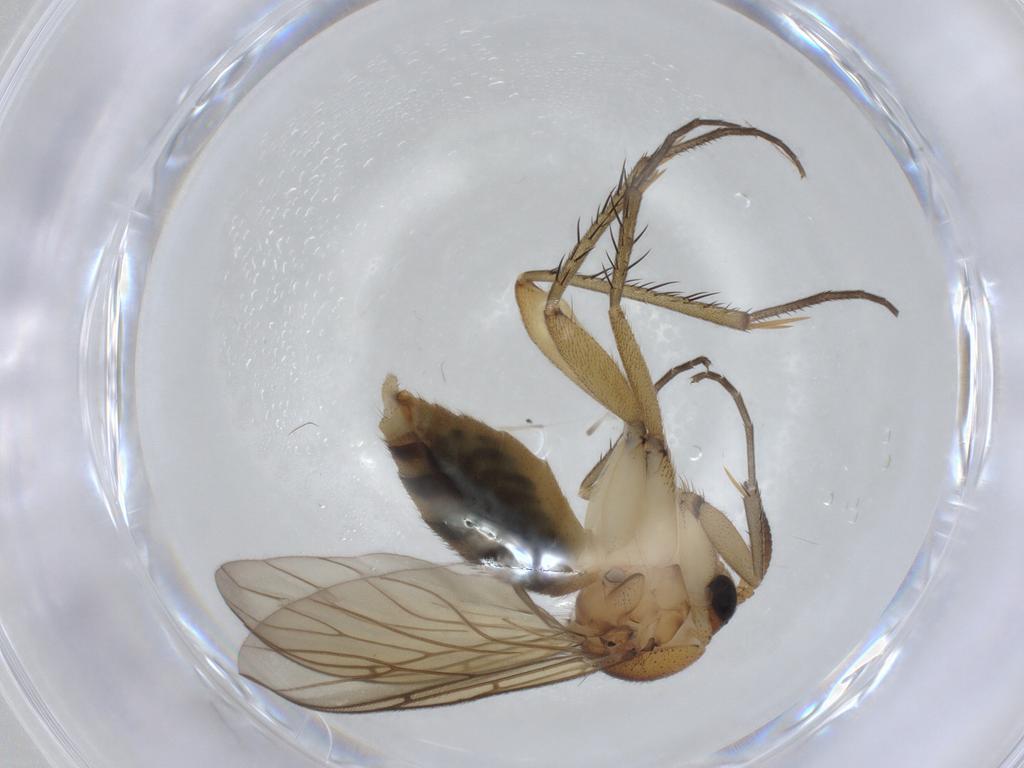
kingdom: Animalia
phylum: Arthropoda
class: Insecta
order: Diptera
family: Mycetophilidae
